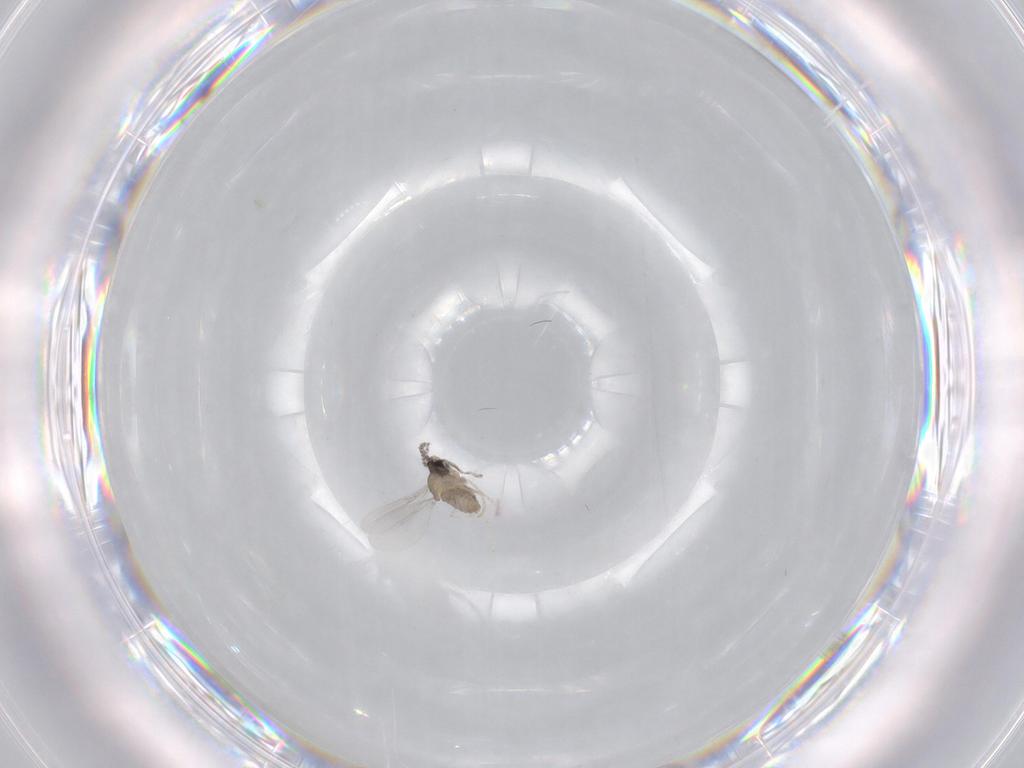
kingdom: Animalia
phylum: Arthropoda
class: Insecta
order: Diptera
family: Cecidomyiidae
